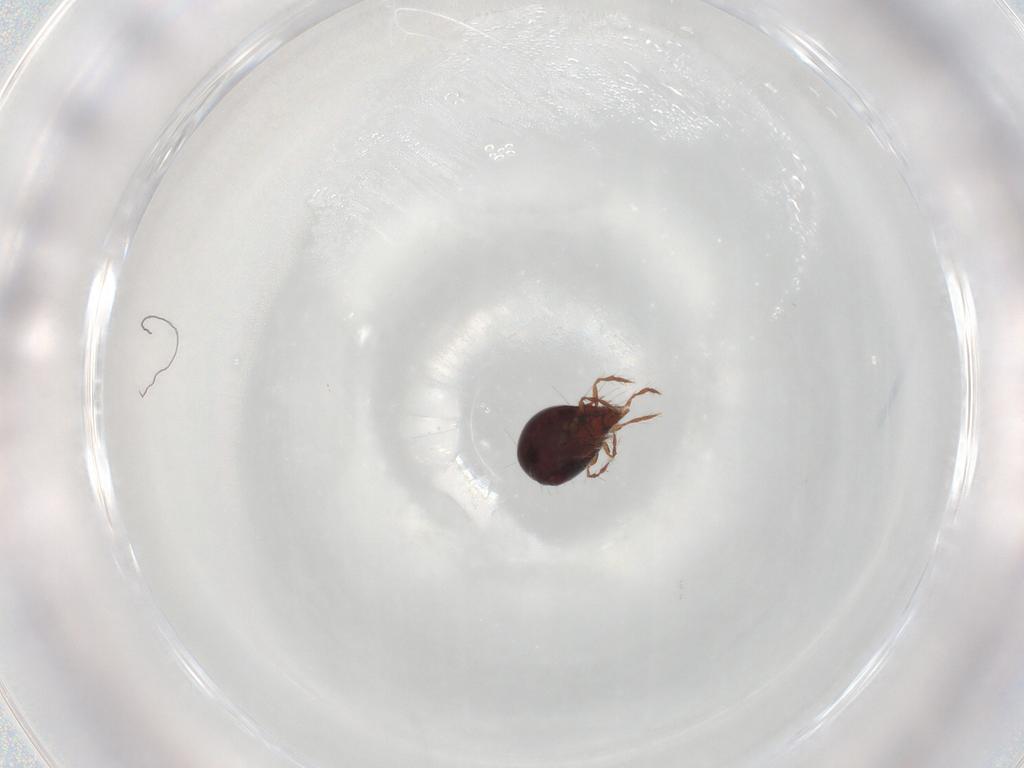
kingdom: Animalia
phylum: Arthropoda
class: Arachnida
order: Sarcoptiformes
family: Ceratoppiidae
